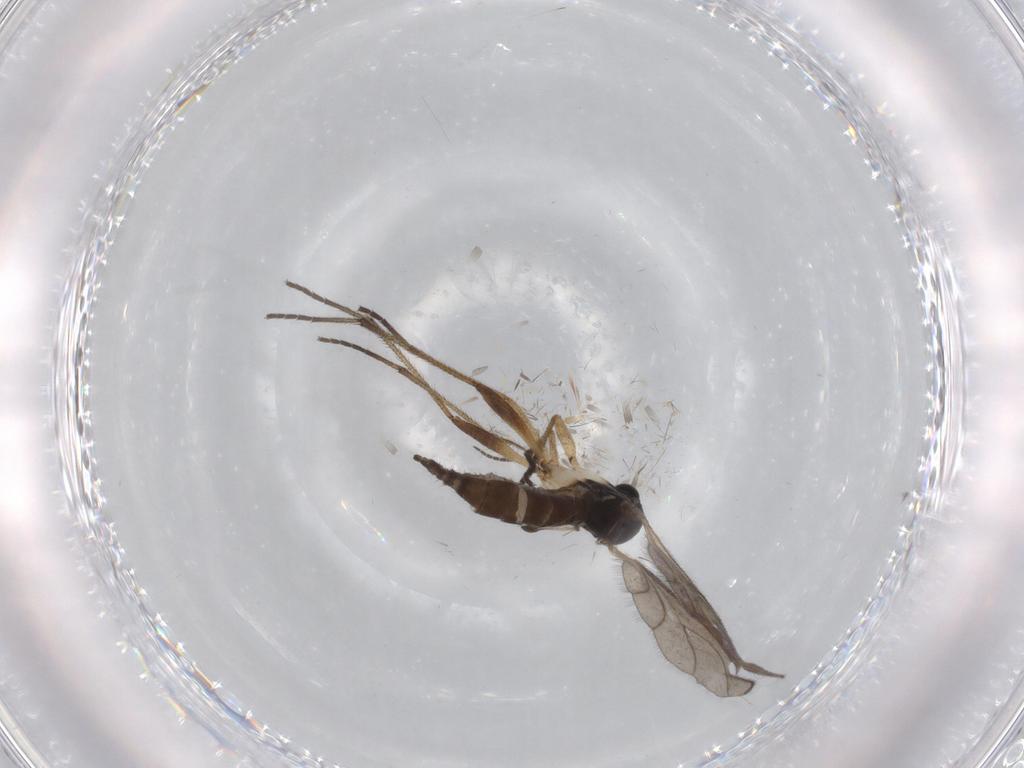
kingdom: Animalia
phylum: Arthropoda
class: Insecta
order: Diptera
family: Sciaridae
